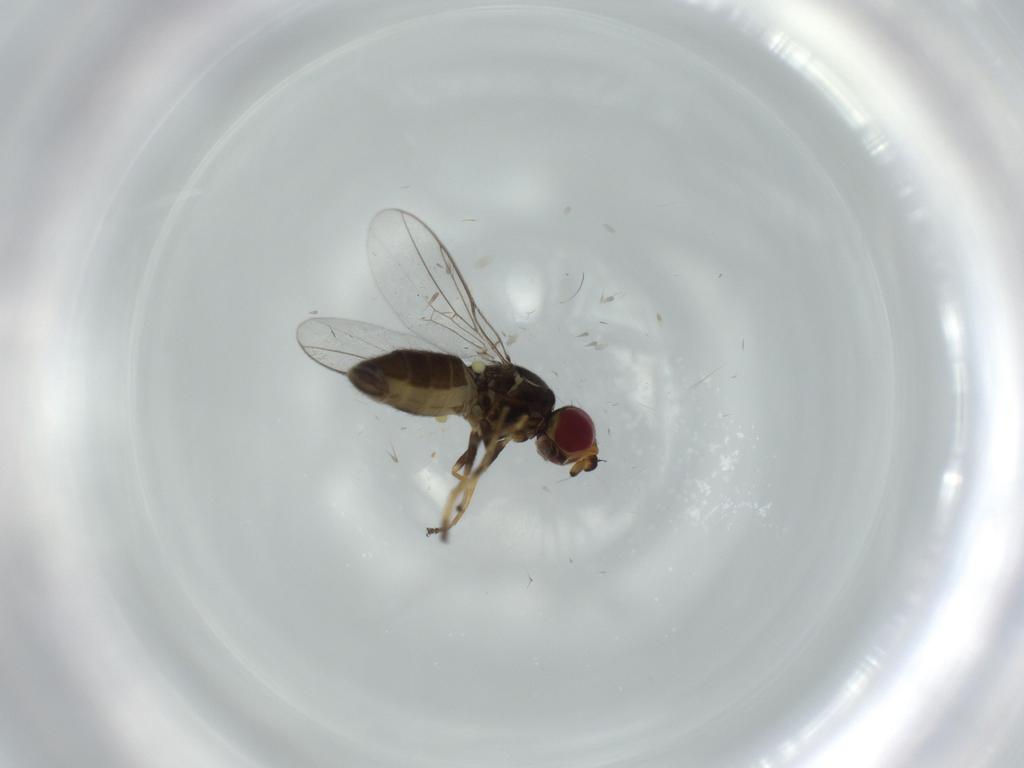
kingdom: Animalia
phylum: Arthropoda
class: Insecta
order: Diptera
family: Chloropidae
